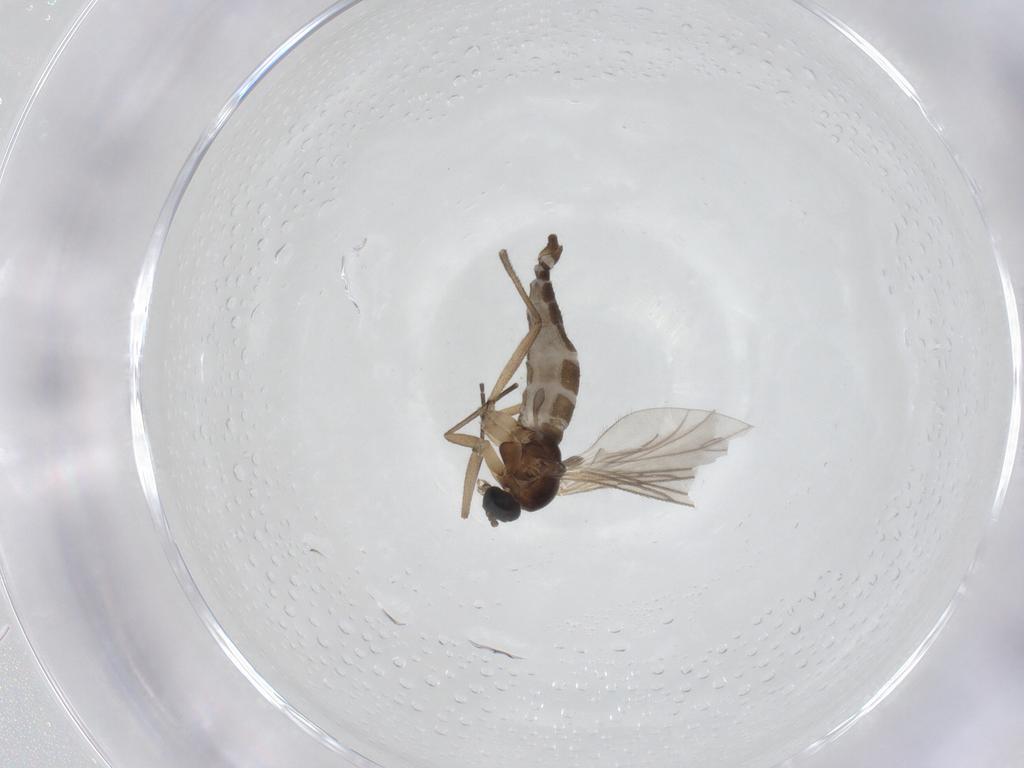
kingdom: Animalia
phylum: Arthropoda
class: Insecta
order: Diptera
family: Sciaridae
